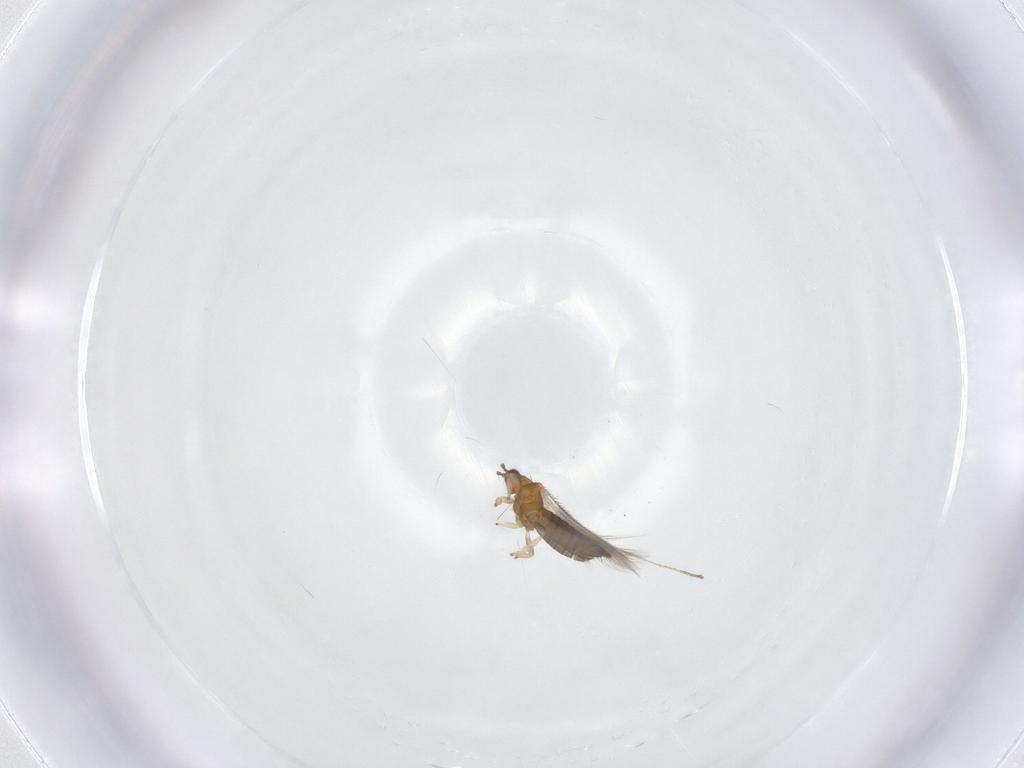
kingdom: Animalia
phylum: Arthropoda
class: Insecta
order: Thysanoptera
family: Thripidae
